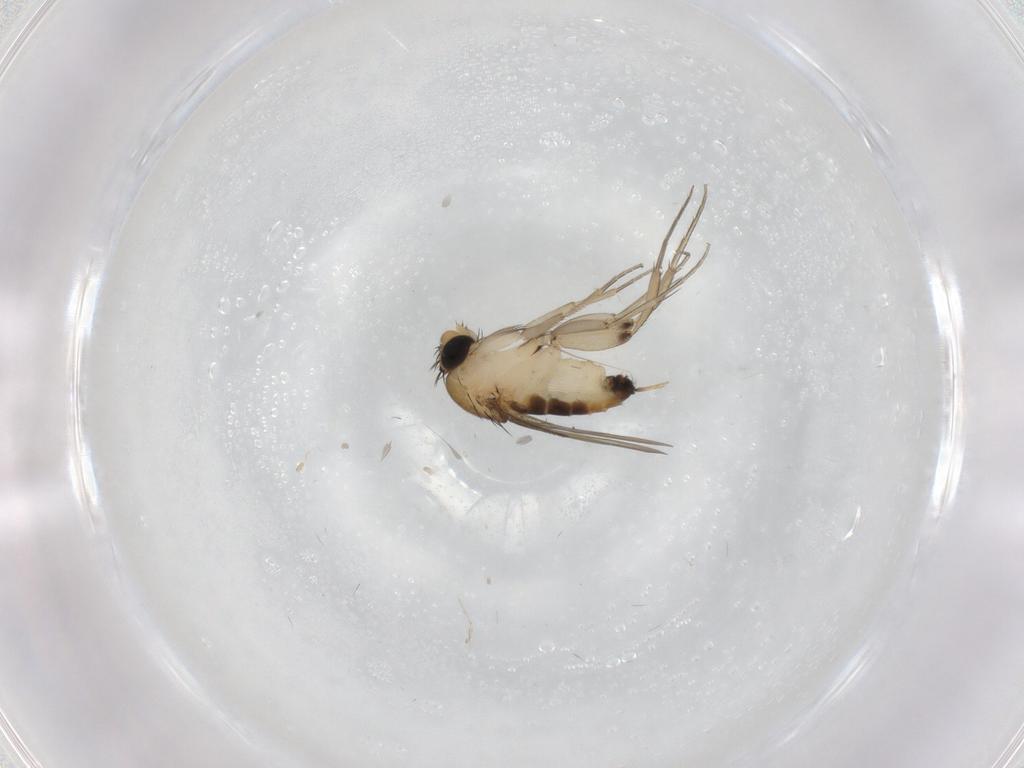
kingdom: Animalia
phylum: Arthropoda
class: Insecta
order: Diptera
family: Phoridae
